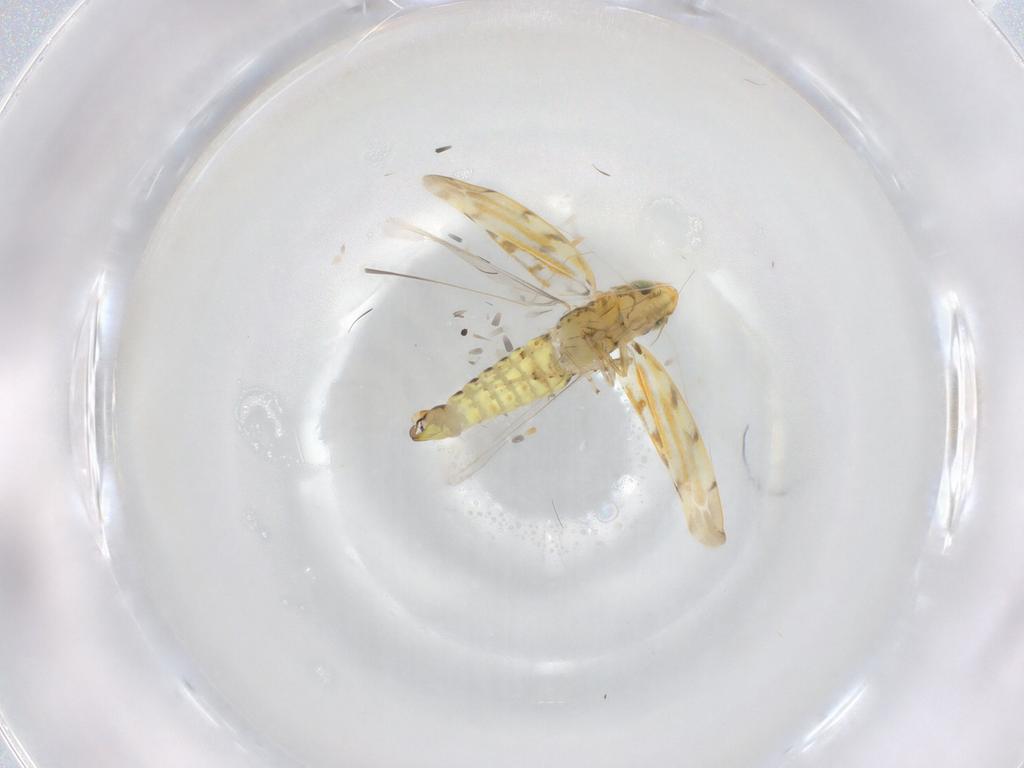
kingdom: Animalia
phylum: Arthropoda
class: Insecta
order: Hemiptera
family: Cicadellidae
